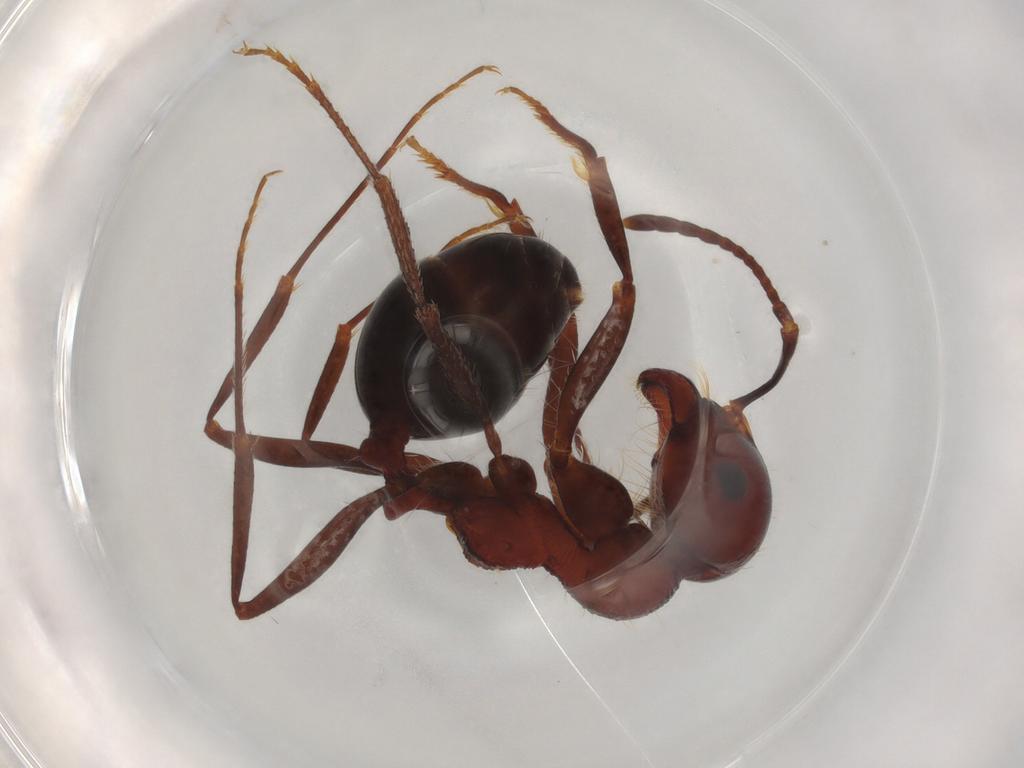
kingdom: Animalia
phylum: Arthropoda
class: Insecta
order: Hymenoptera
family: Formicidae
